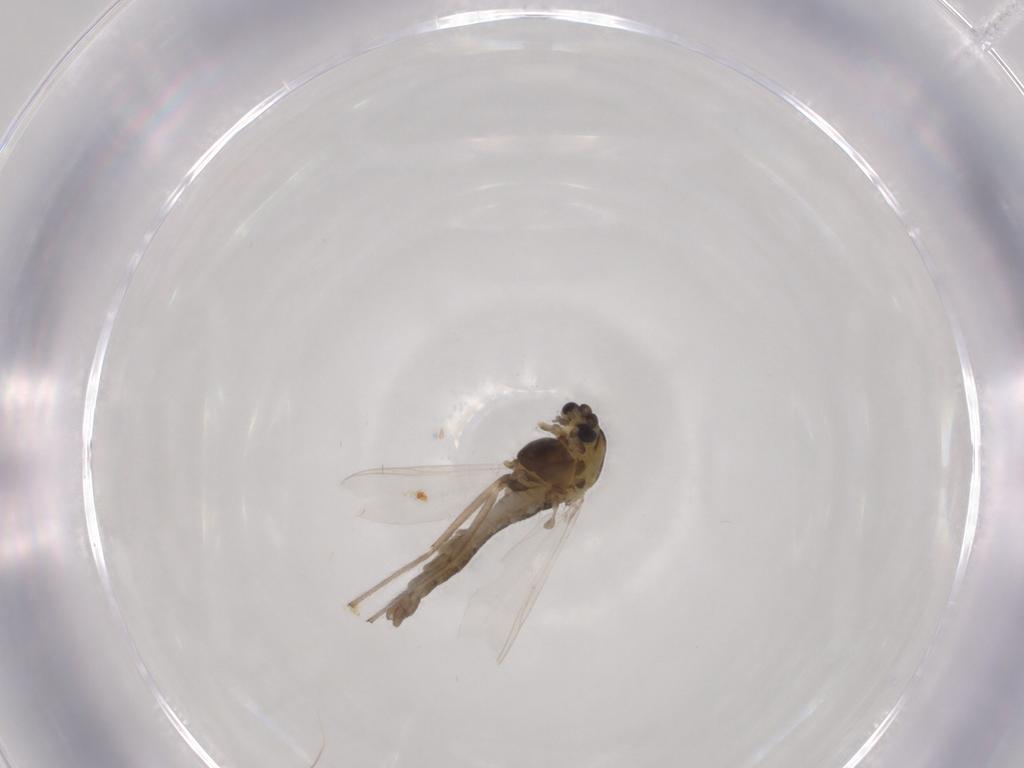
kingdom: Animalia
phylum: Arthropoda
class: Insecta
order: Diptera
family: Chironomidae
